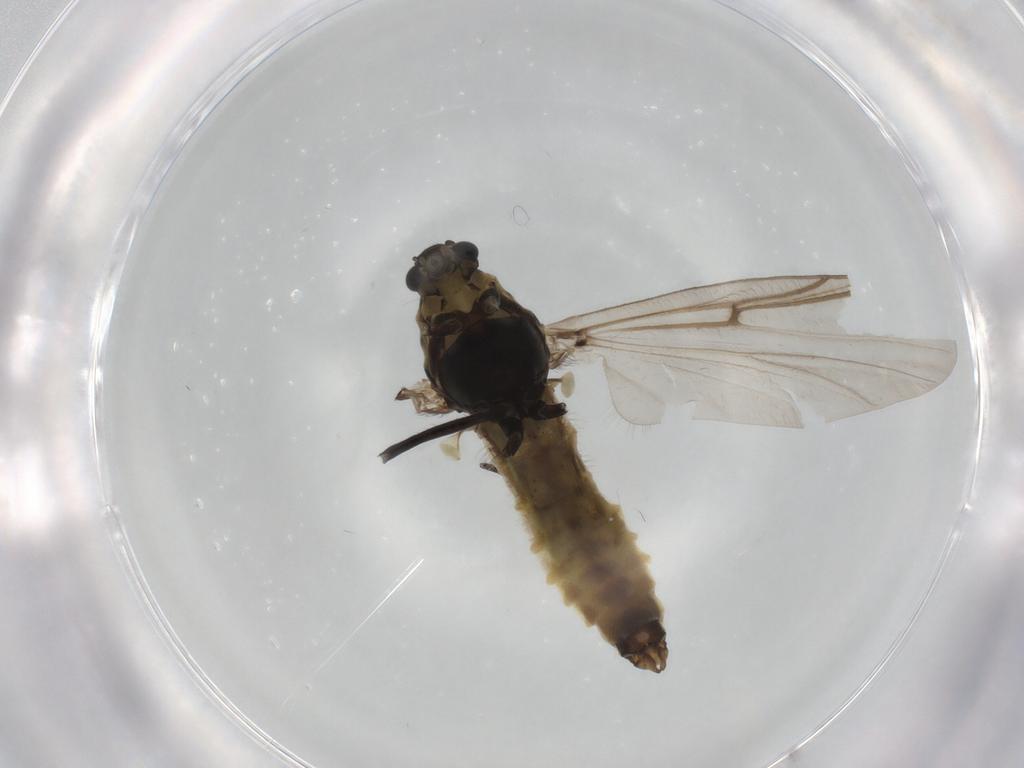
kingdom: Animalia
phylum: Arthropoda
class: Insecta
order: Diptera
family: Chironomidae
